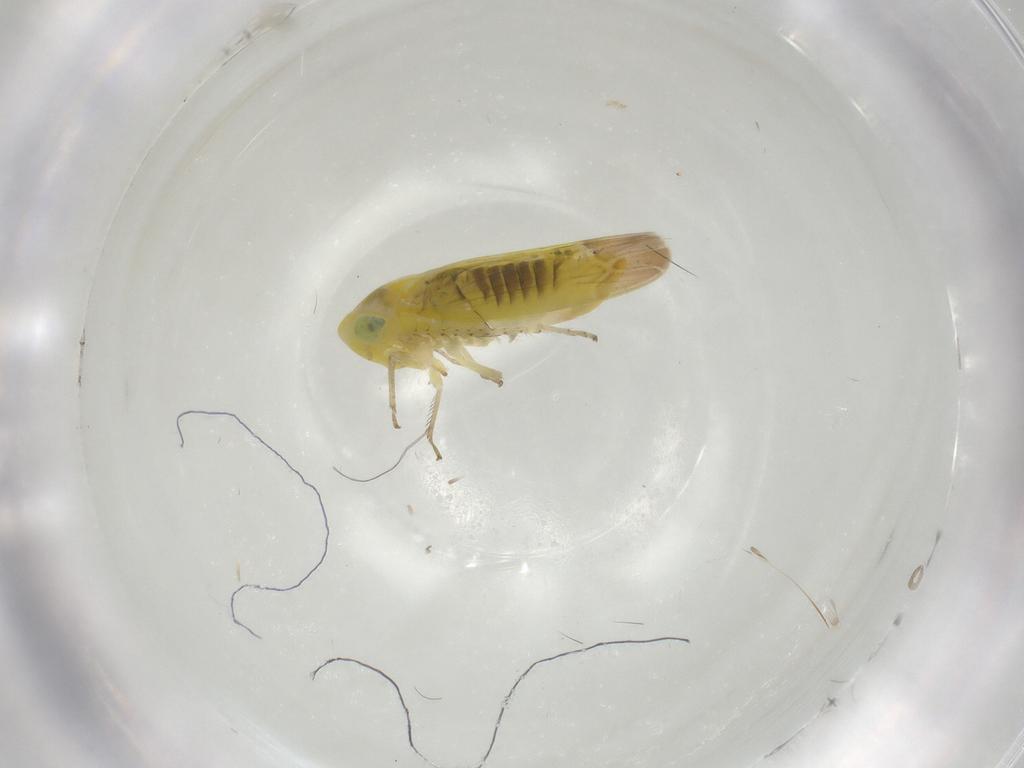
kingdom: Animalia
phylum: Arthropoda
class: Insecta
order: Hemiptera
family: Cicadellidae
